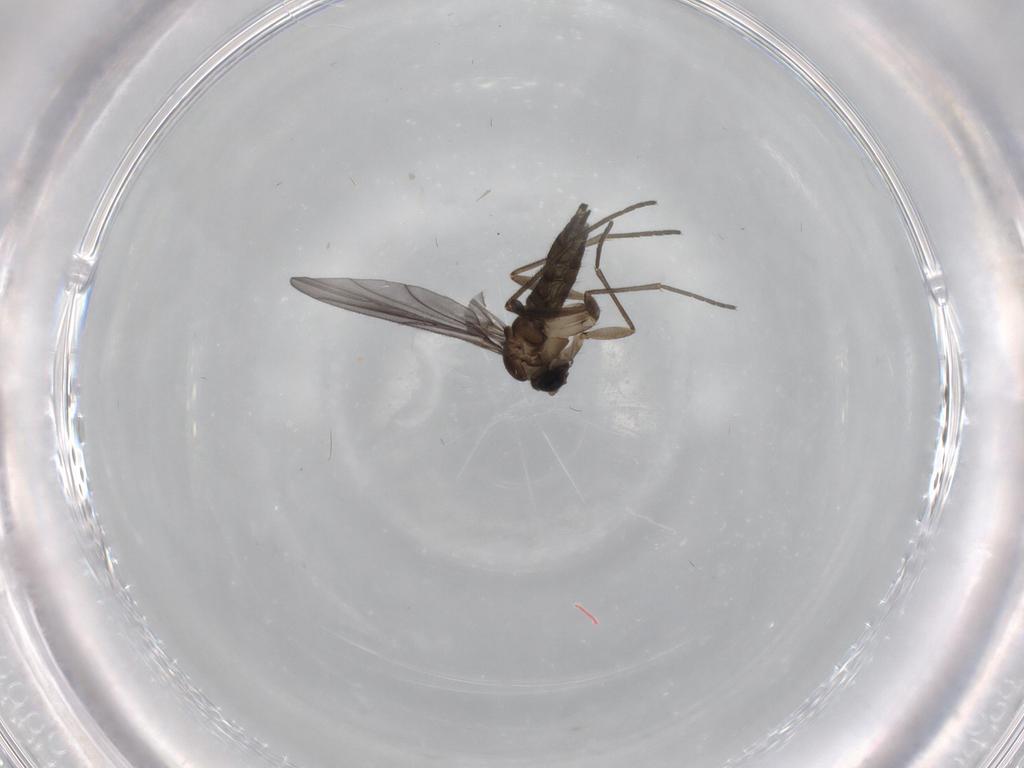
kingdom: Animalia
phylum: Arthropoda
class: Insecta
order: Diptera
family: Sciaridae
